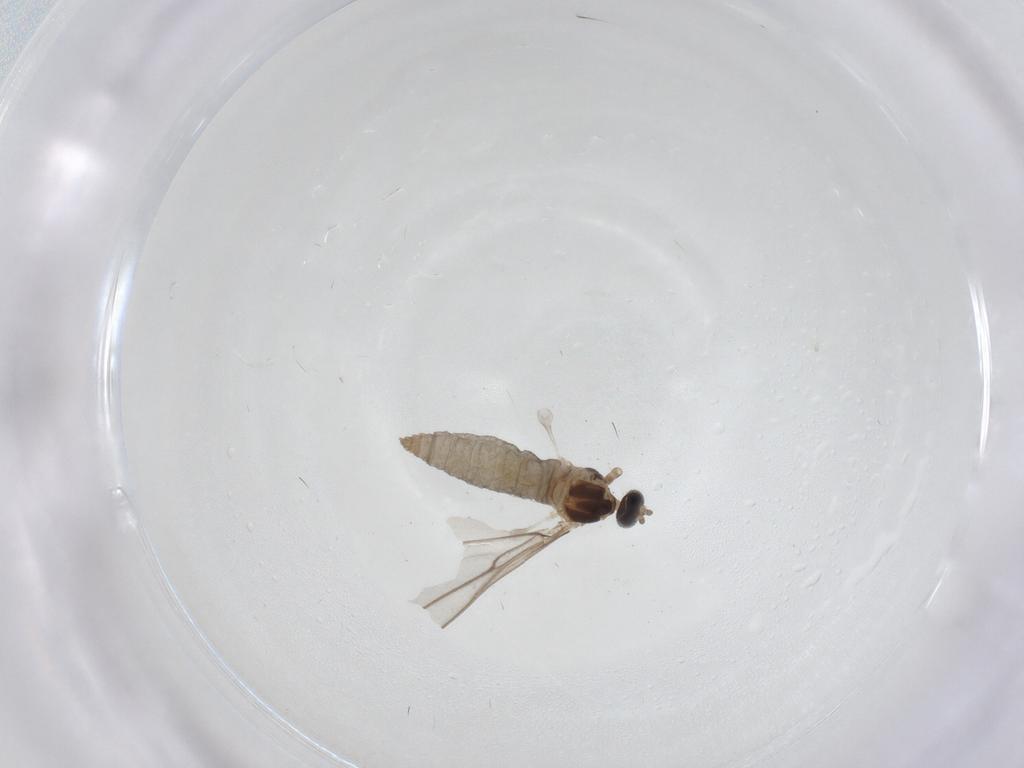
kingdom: Animalia
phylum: Arthropoda
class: Insecta
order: Diptera
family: Cecidomyiidae
